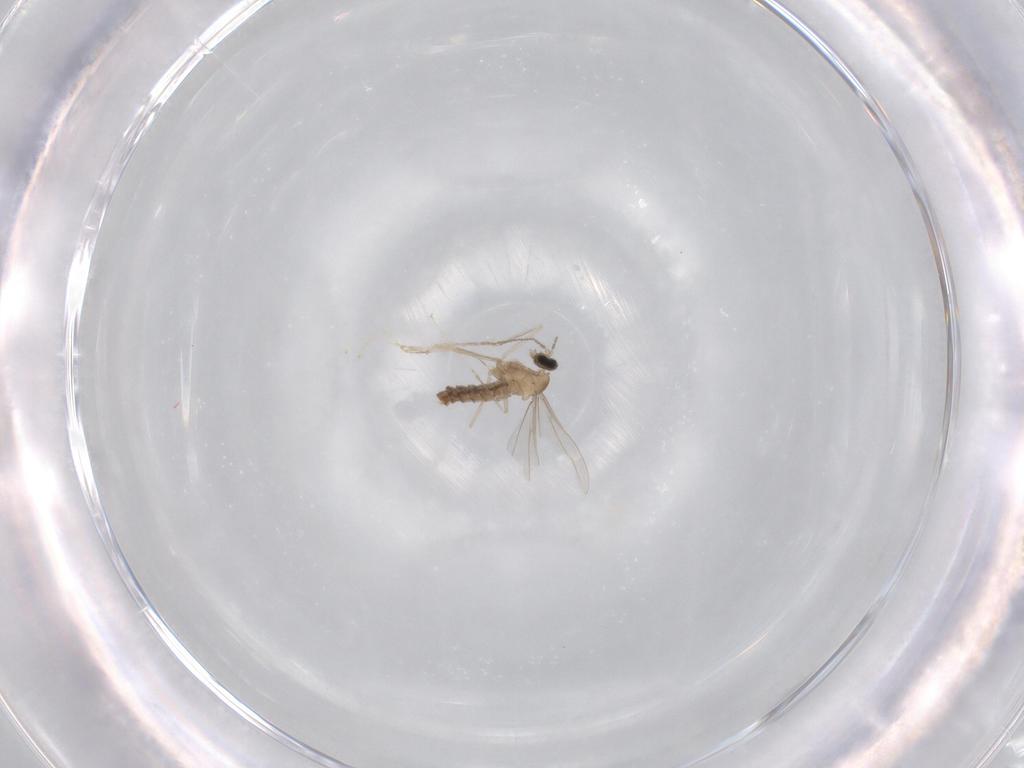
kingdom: Animalia
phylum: Arthropoda
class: Insecta
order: Diptera
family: Cecidomyiidae
